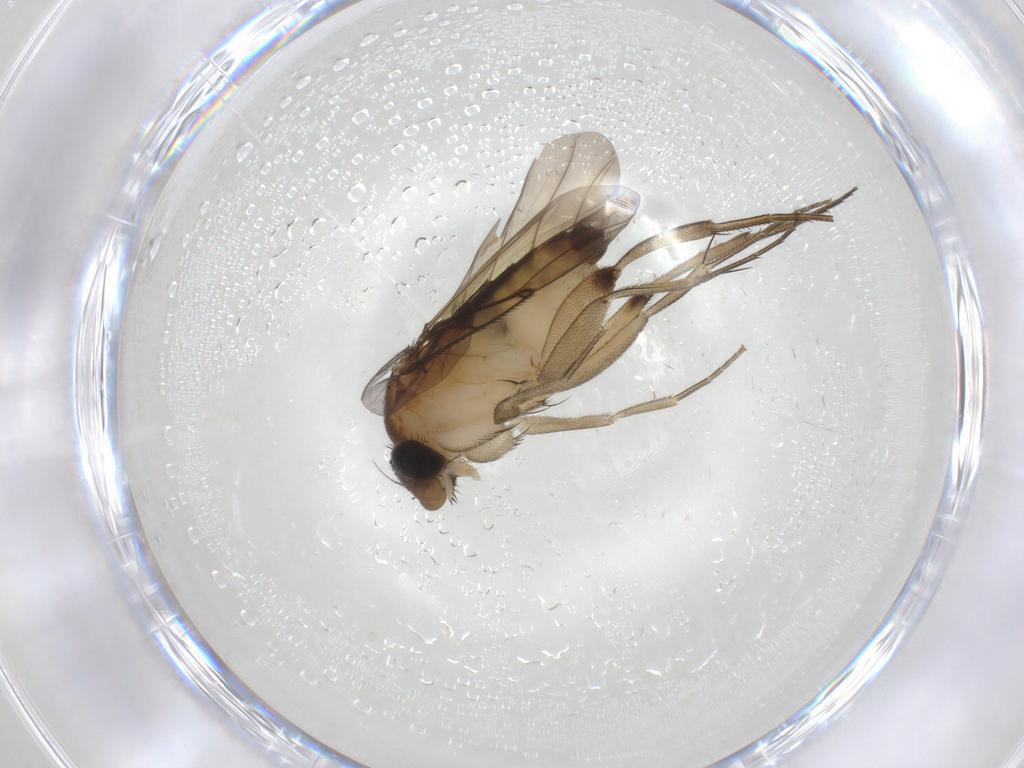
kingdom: Animalia
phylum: Arthropoda
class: Insecta
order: Diptera
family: Phoridae
